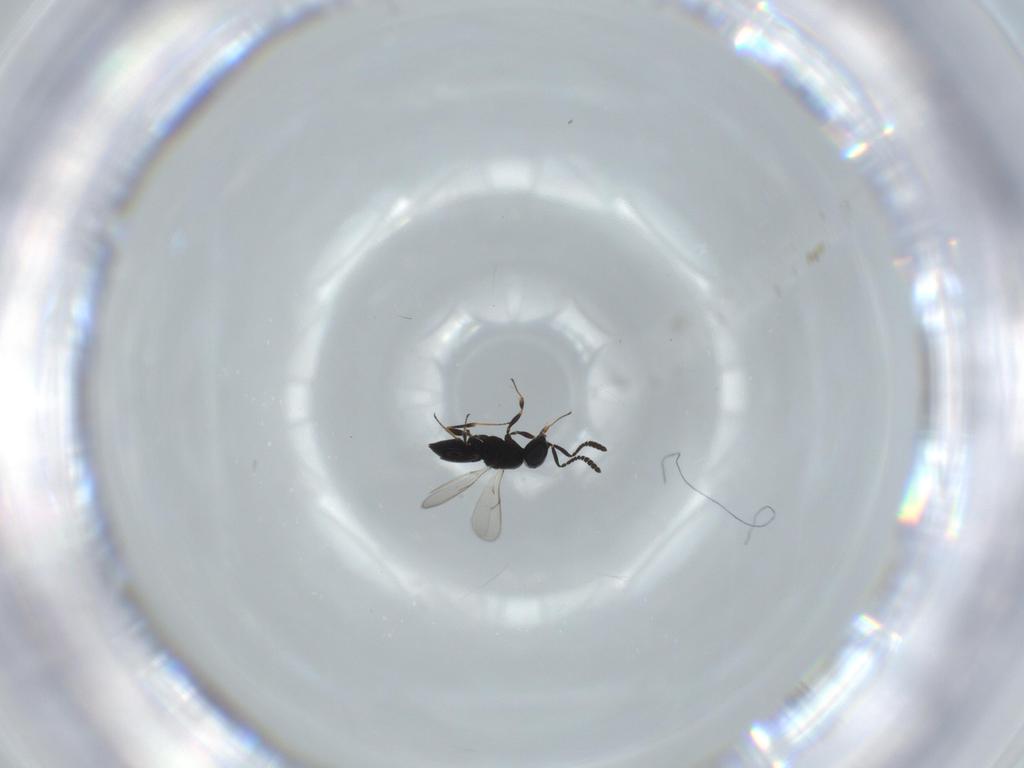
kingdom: Animalia
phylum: Arthropoda
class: Insecta
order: Hymenoptera
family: Scelionidae
